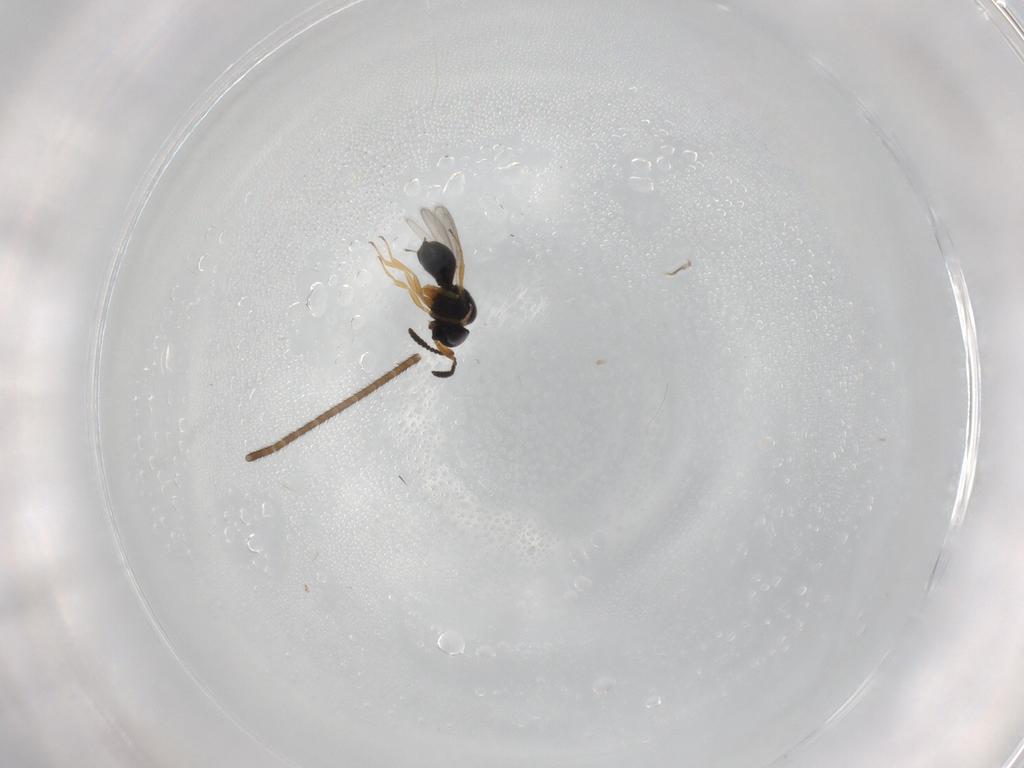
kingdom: Animalia
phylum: Arthropoda
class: Insecta
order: Hymenoptera
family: Scelionidae
